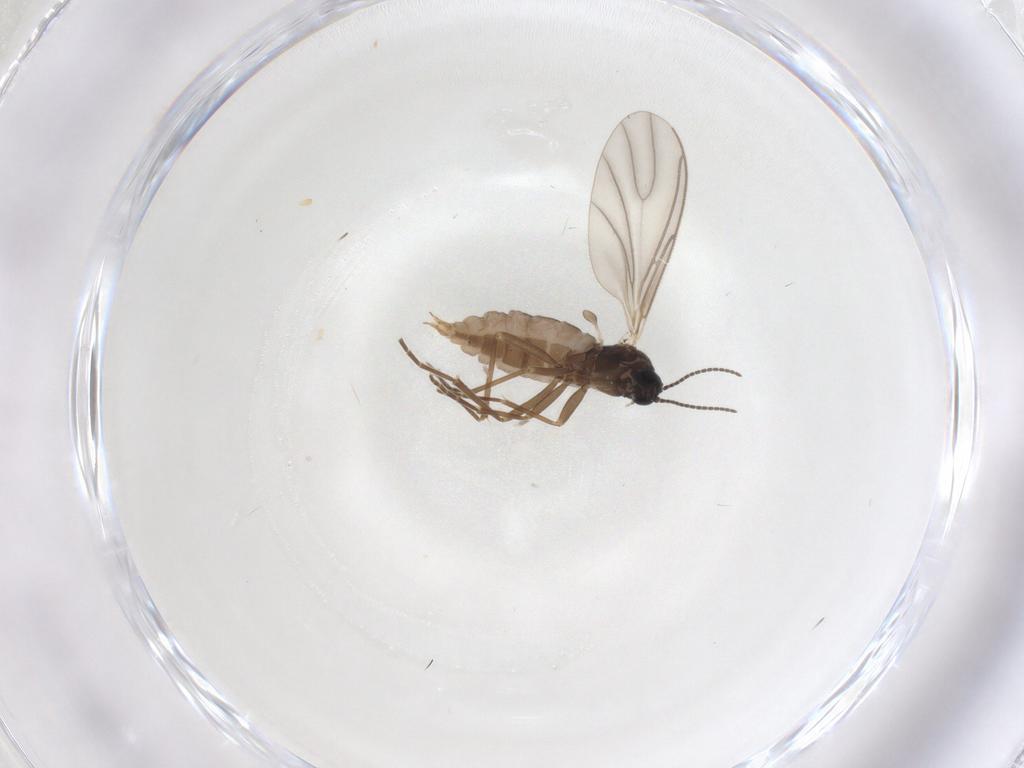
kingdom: Animalia
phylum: Arthropoda
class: Insecta
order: Diptera
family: Sciaridae
